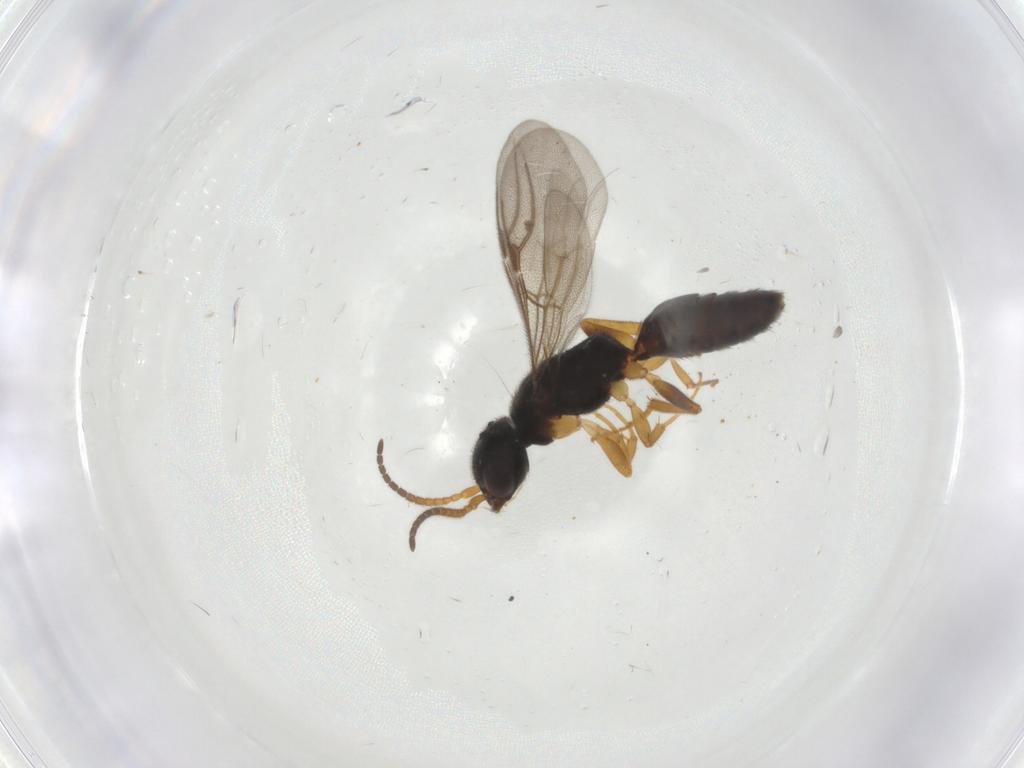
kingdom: Animalia
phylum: Arthropoda
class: Insecta
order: Hymenoptera
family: Bethylidae
